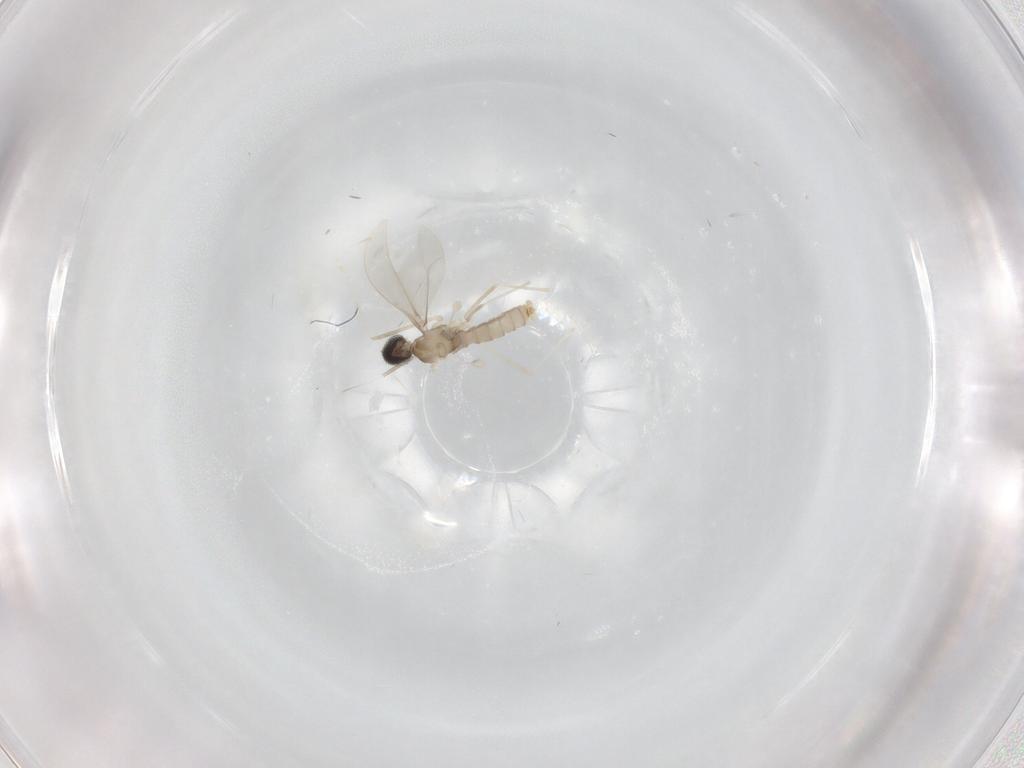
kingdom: Animalia
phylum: Arthropoda
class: Insecta
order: Diptera
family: Cecidomyiidae
